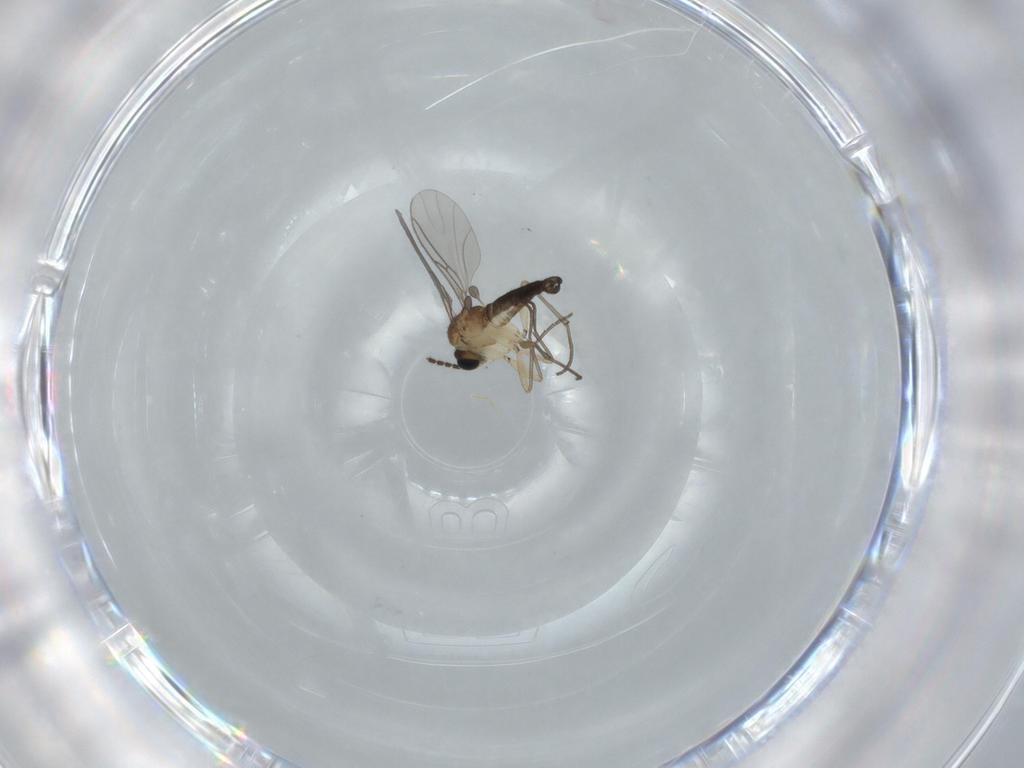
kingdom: Animalia
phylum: Arthropoda
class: Insecta
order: Diptera
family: Sciaridae
